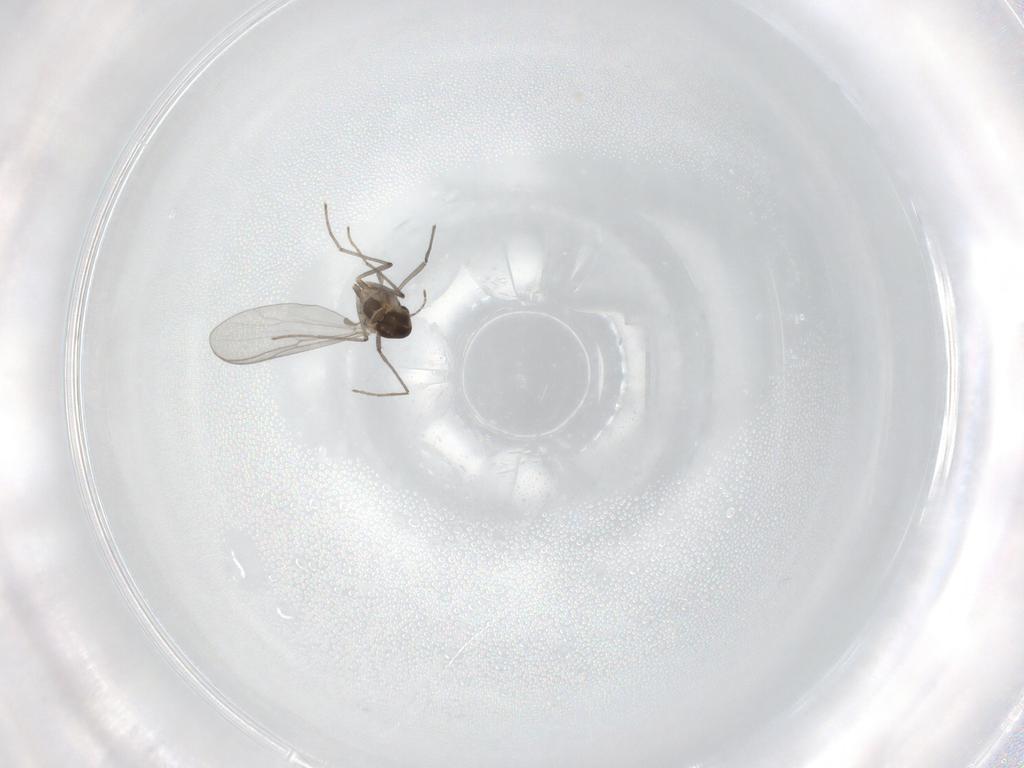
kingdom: Animalia
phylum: Arthropoda
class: Insecta
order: Diptera
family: Chironomidae
